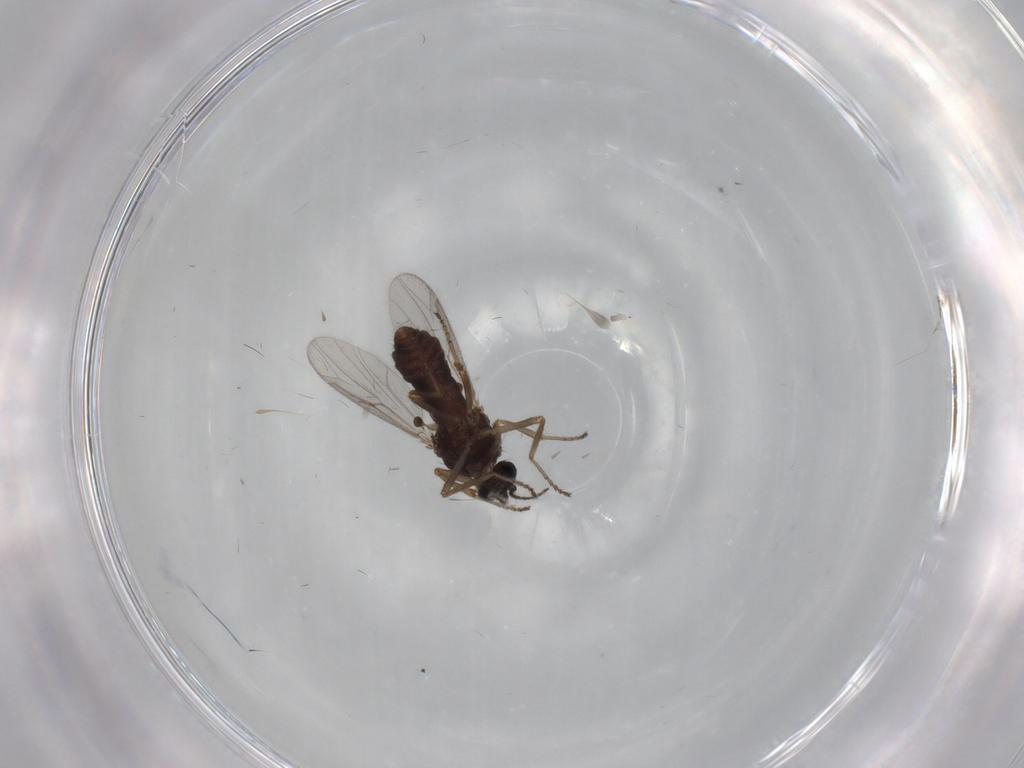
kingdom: Animalia
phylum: Arthropoda
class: Insecta
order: Diptera
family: Ceratopogonidae
